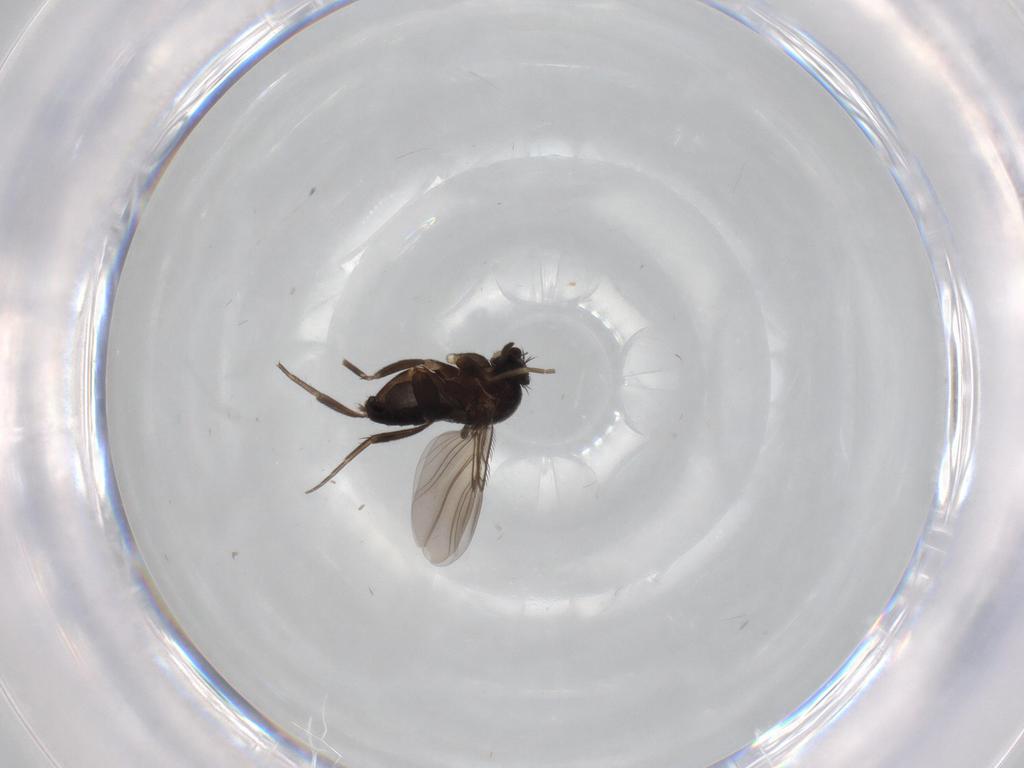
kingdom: Animalia
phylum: Arthropoda
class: Insecta
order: Diptera
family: Phoridae
